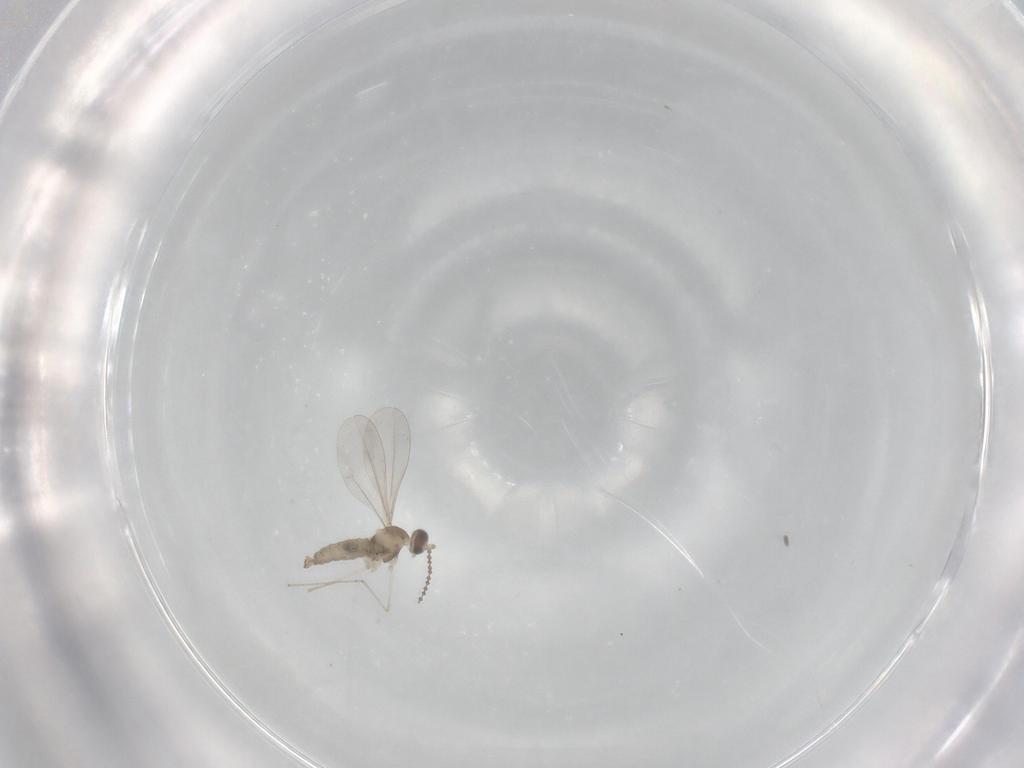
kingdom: Animalia
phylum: Arthropoda
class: Insecta
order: Diptera
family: Cecidomyiidae
